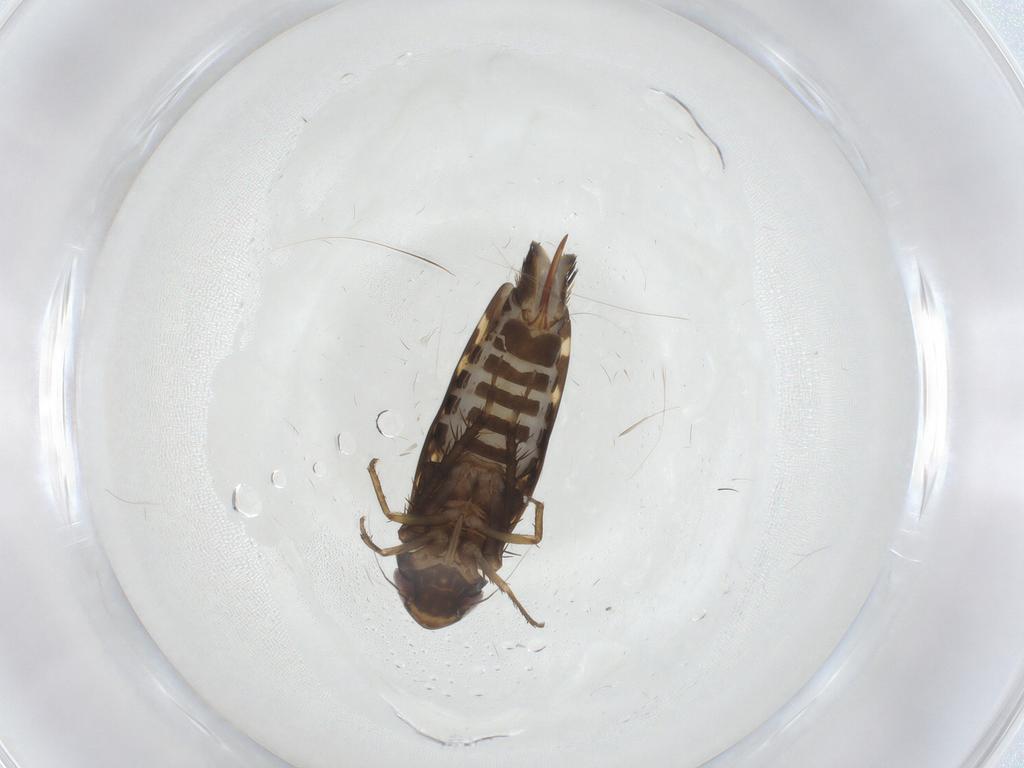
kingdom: Animalia
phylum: Arthropoda
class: Insecta
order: Hemiptera
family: Cicadellidae
